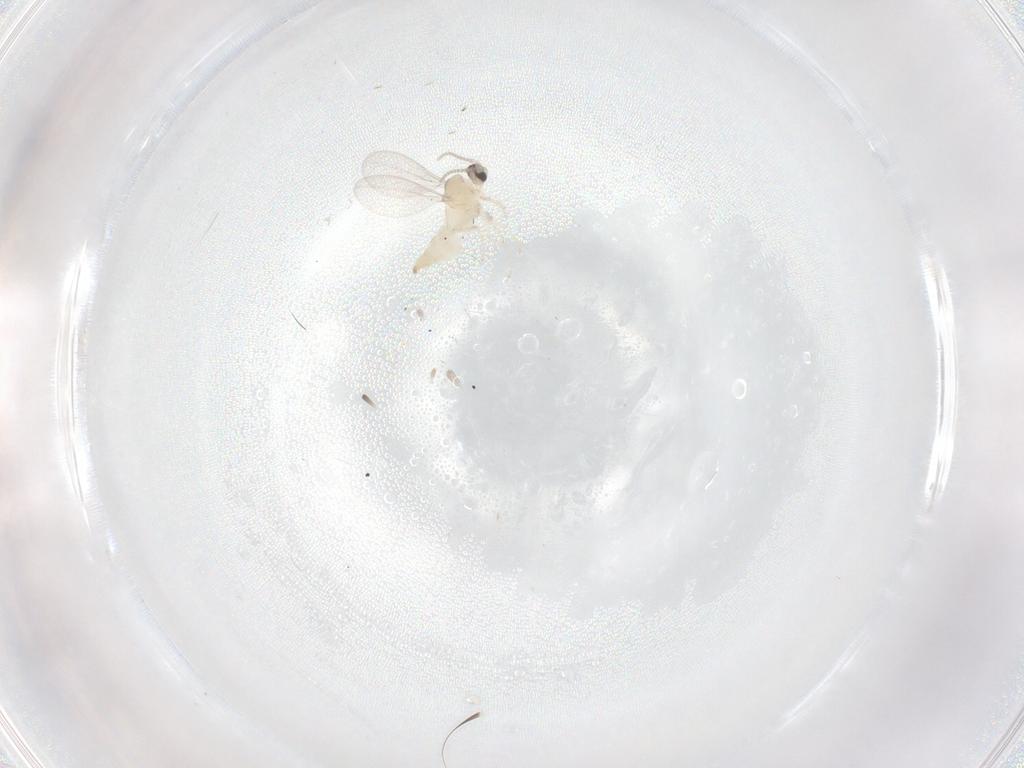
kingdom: Animalia
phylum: Arthropoda
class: Insecta
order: Diptera
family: Cecidomyiidae
